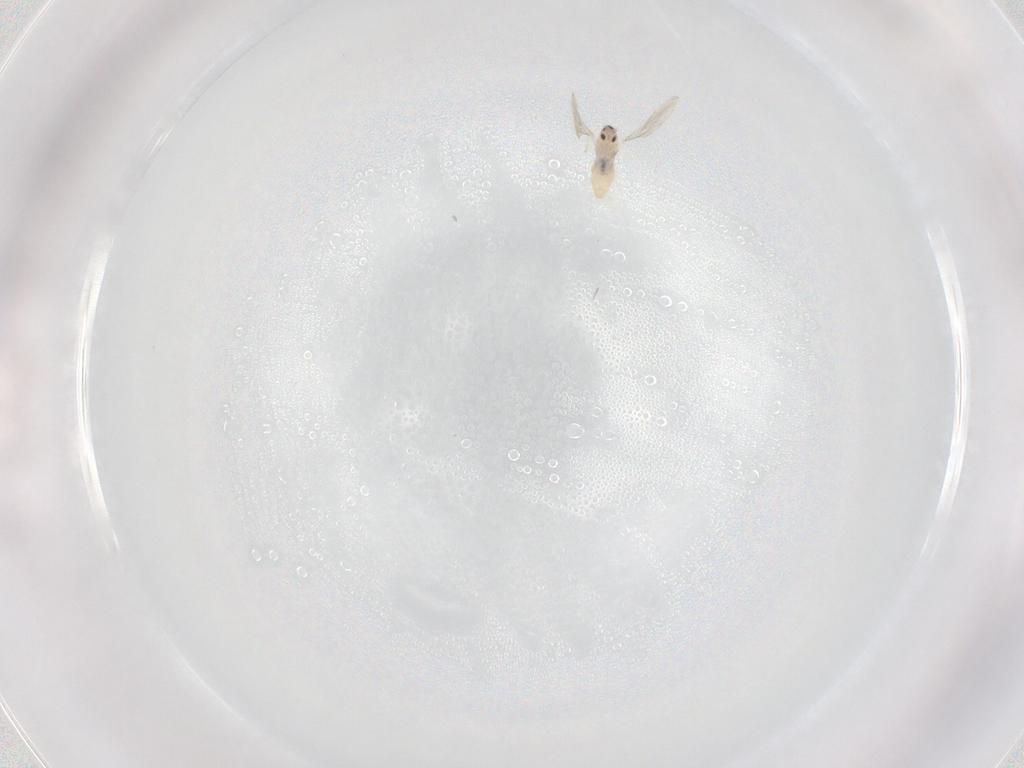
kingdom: Animalia
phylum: Arthropoda
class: Insecta
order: Diptera
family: Cecidomyiidae
